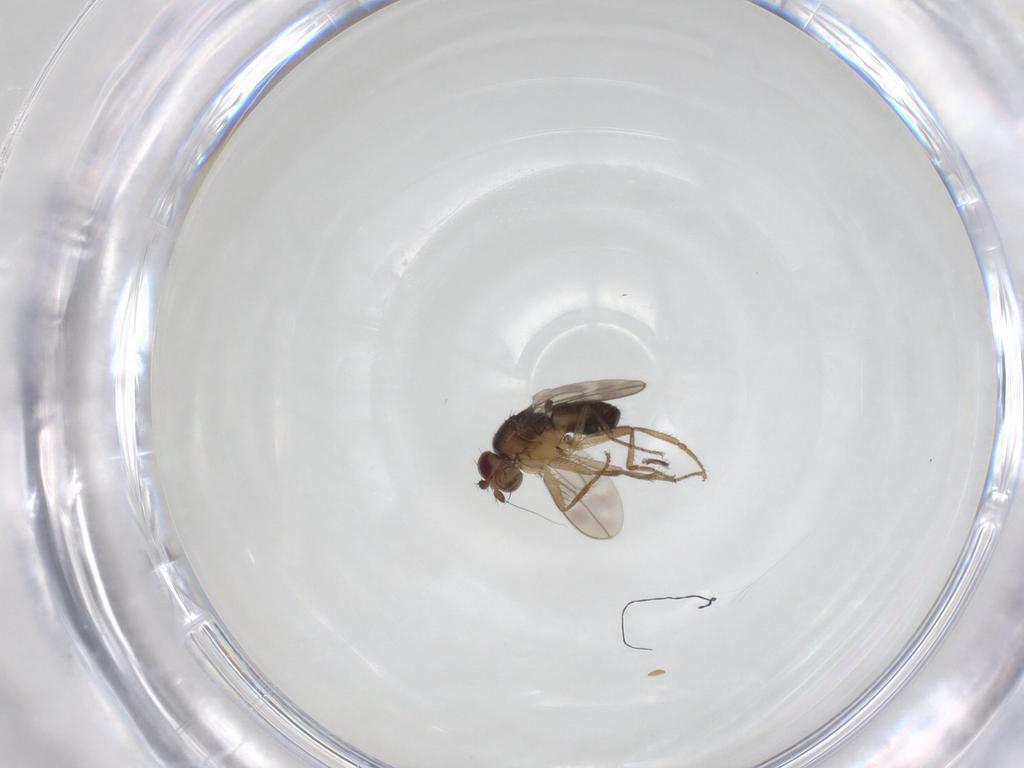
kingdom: Animalia
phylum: Arthropoda
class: Insecta
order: Diptera
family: Sphaeroceridae
